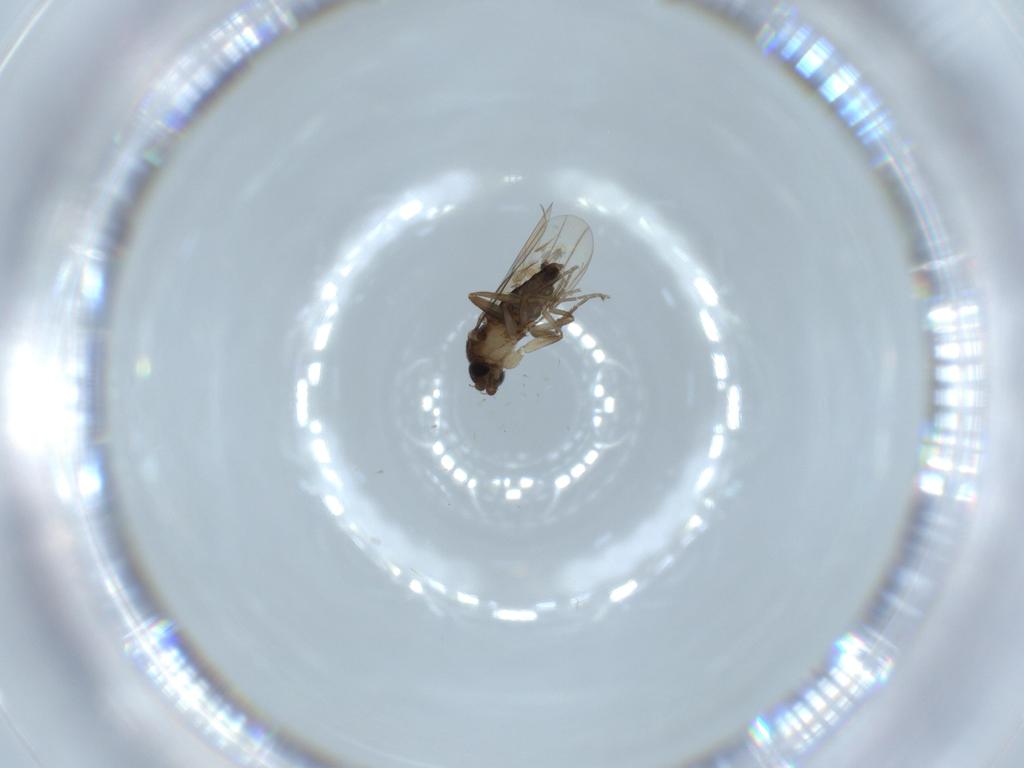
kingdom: Animalia
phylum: Arthropoda
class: Insecta
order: Diptera
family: Phoridae
